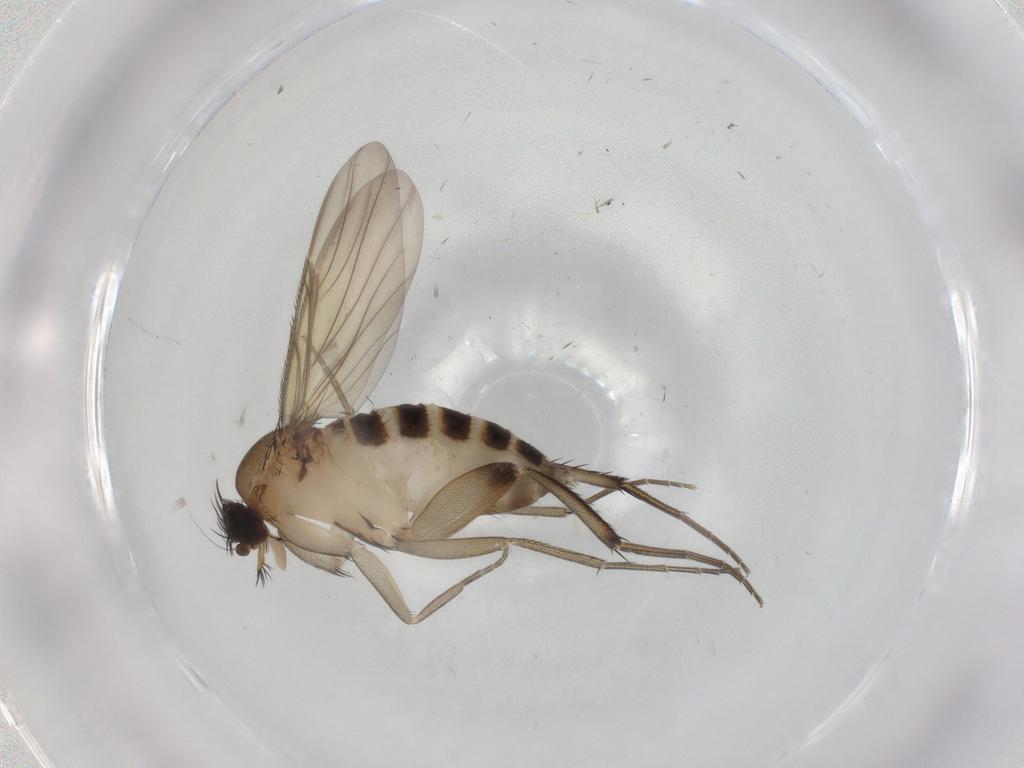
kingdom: Animalia
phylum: Arthropoda
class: Insecta
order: Diptera
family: Phoridae
